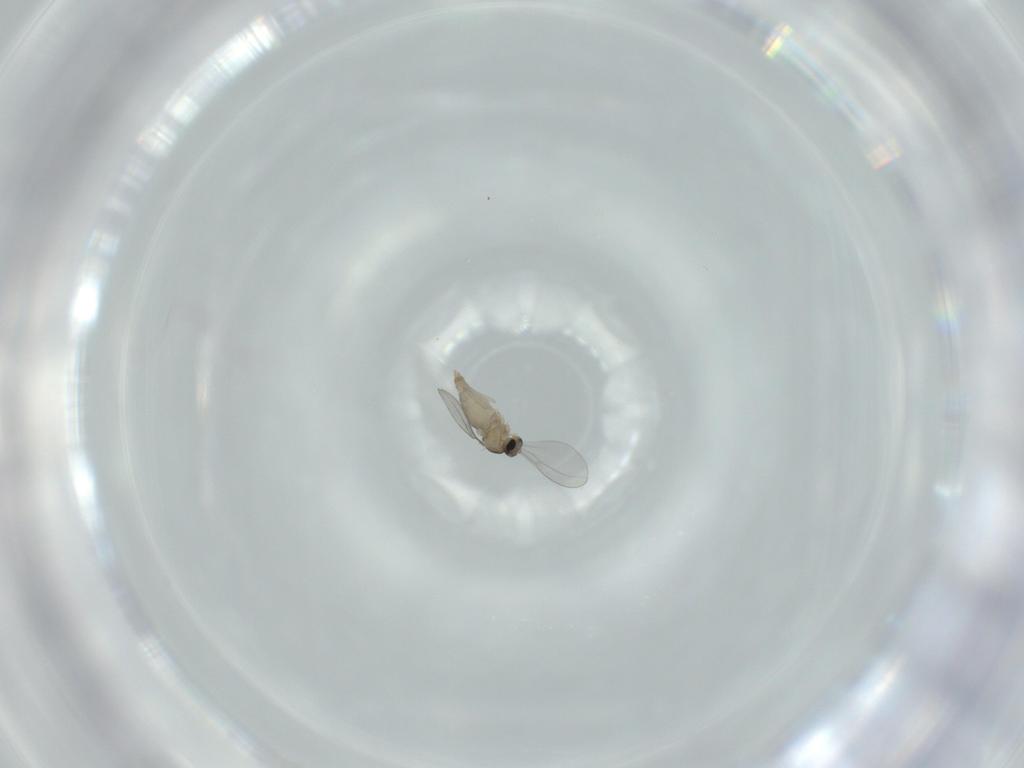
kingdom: Animalia
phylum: Arthropoda
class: Insecta
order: Diptera
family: Cecidomyiidae
